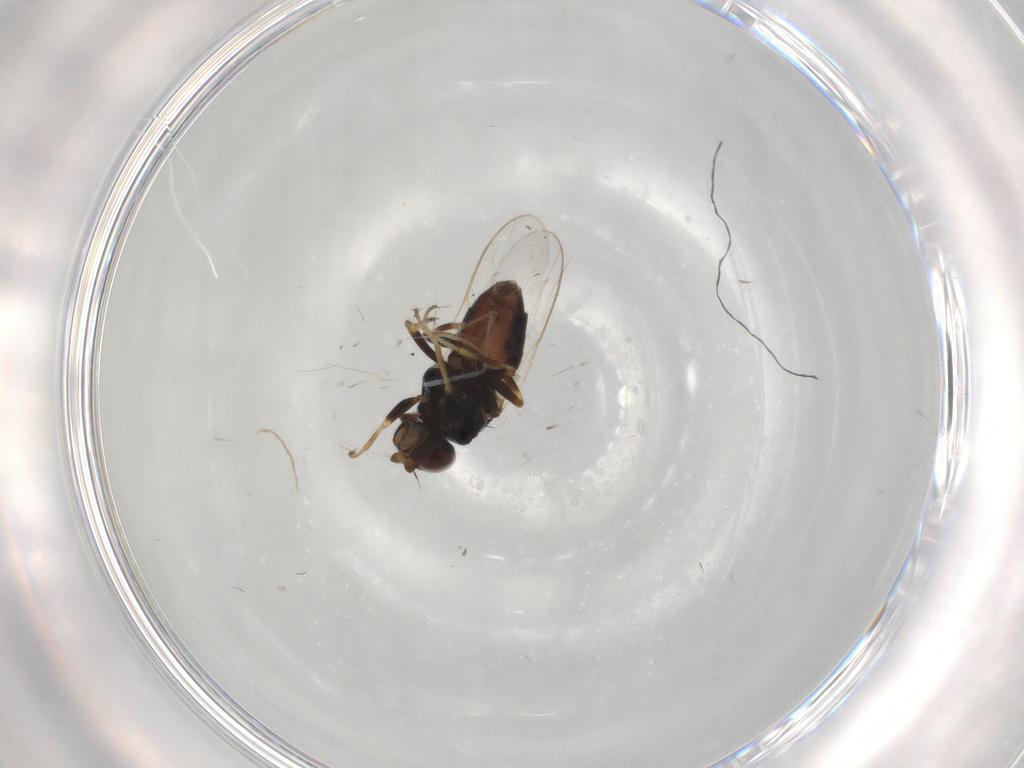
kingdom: Animalia
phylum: Arthropoda
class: Insecta
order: Diptera
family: Chloropidae
